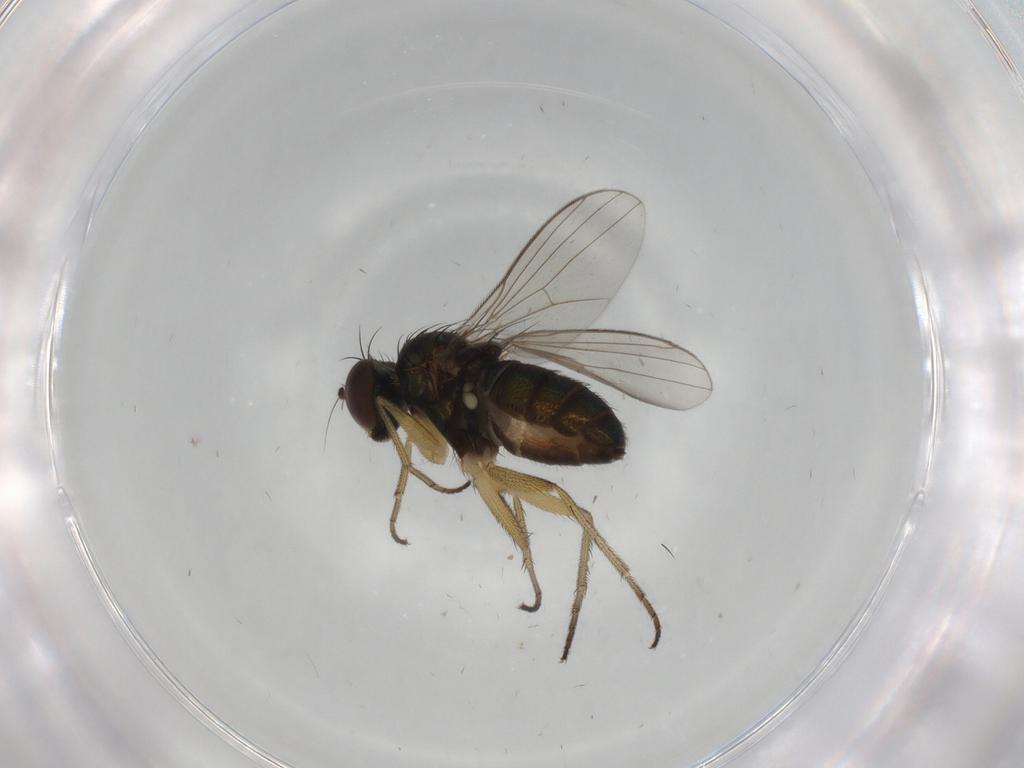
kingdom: Animalia
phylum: Arthropoda
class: Insecta
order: Diptera
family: Dolichopodidae
